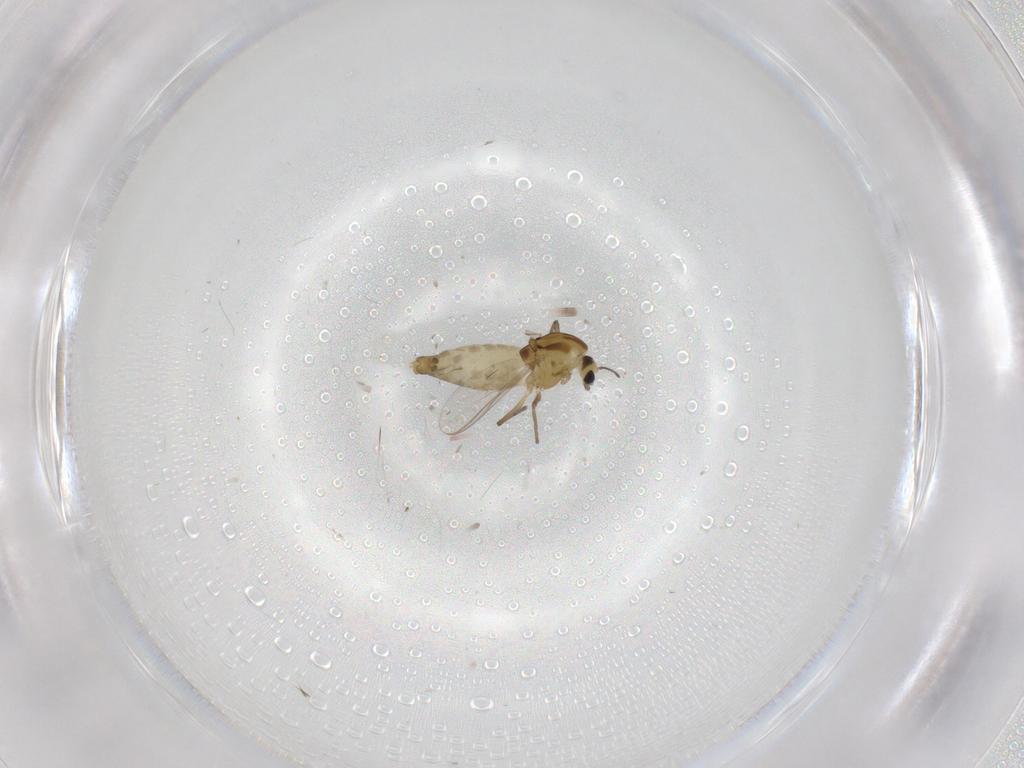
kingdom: Animalia
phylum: Arthropoda
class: Insecta
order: Diptera
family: Chironomidae
